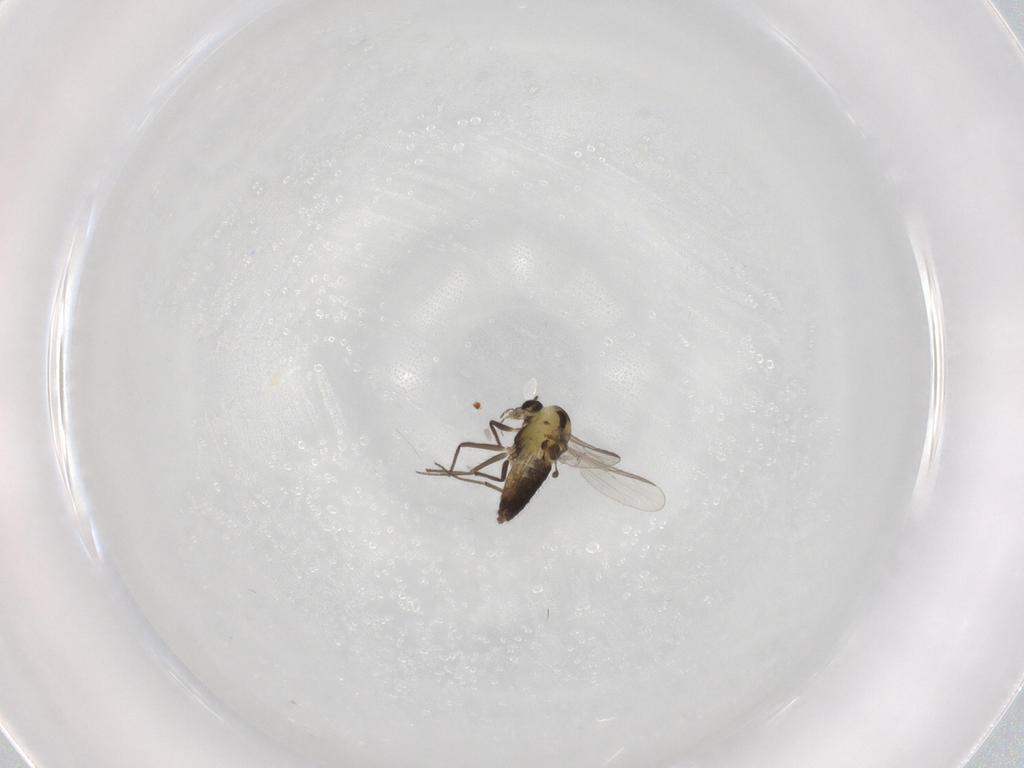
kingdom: Animalia
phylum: Arthropoda
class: Insecta
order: Diptera
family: Chironomidae
